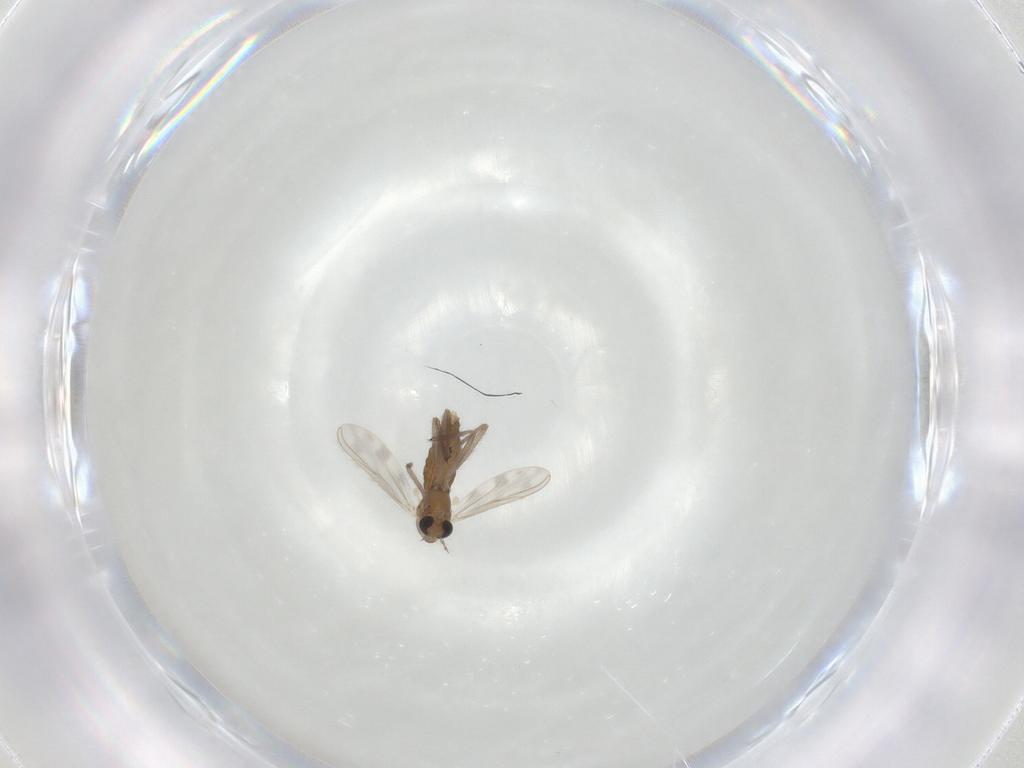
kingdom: Animalia
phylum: Arthropoda
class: Insecta
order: Diptera
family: Chironomidae
